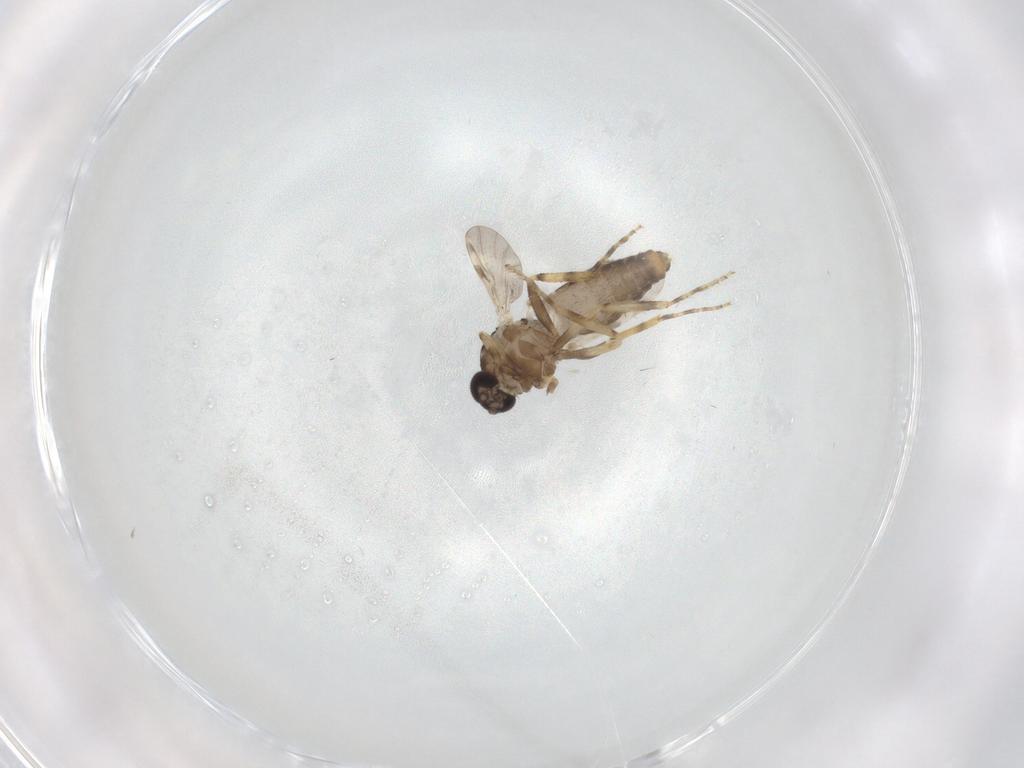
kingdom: Animalia
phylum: Arthropoda
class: Insecta
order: Diptera
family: Ceratopogonidae
